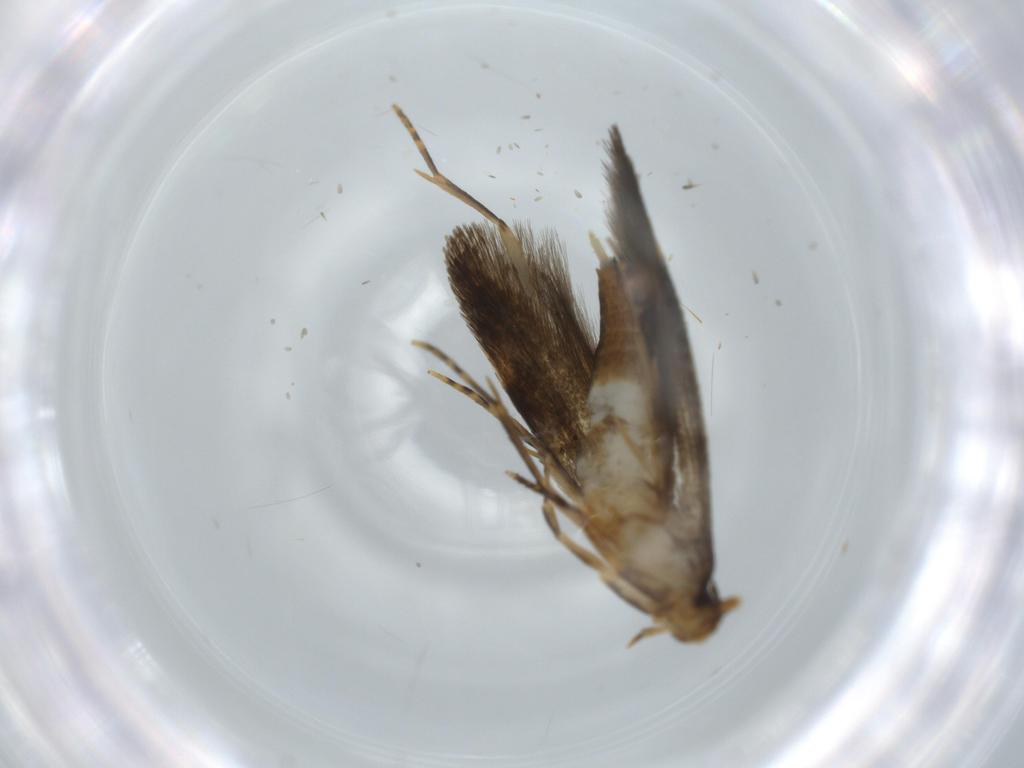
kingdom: Animalia
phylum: Arthropoda
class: Insecta
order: Lepidoptera
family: Tineidae
